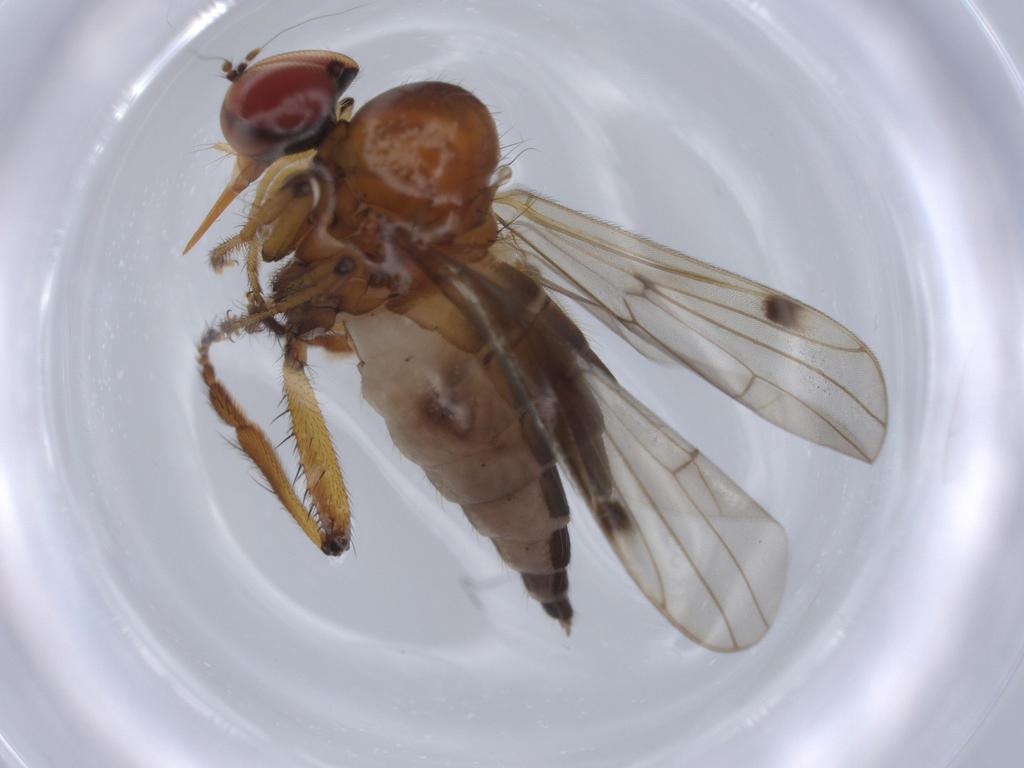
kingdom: Animalia
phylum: Arthropoda
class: Insecta
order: Diptera
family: Hybotidae
